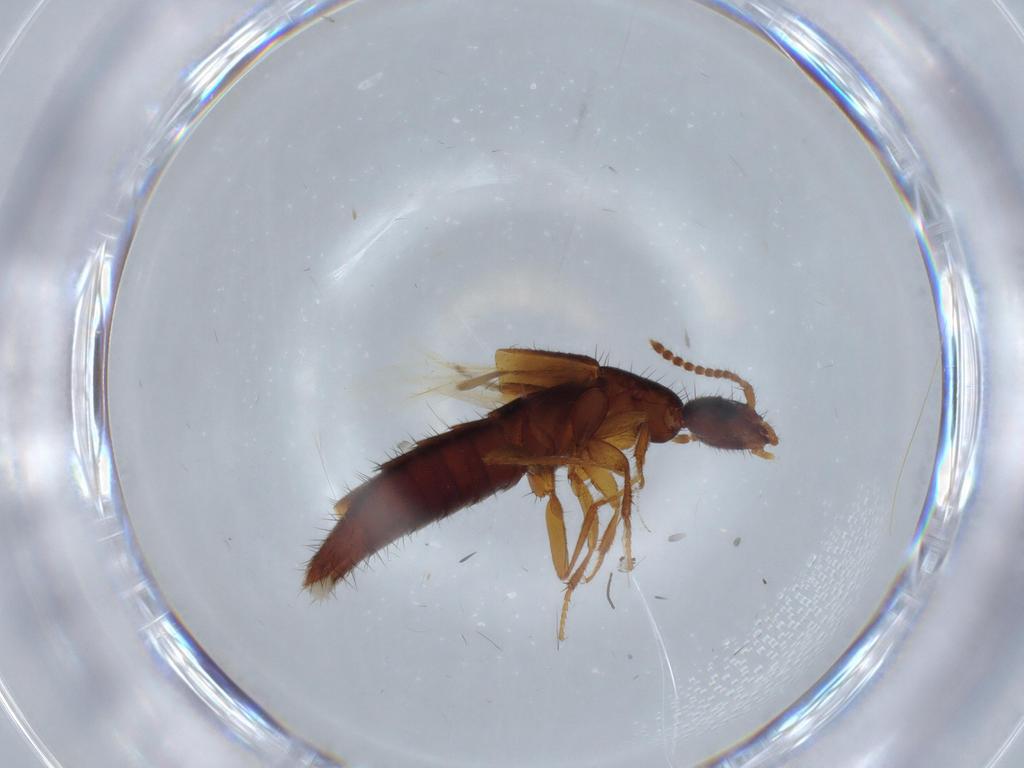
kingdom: Animalia
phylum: Arthropoda
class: Insecta
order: Coleoptera
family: Staphylinidae
